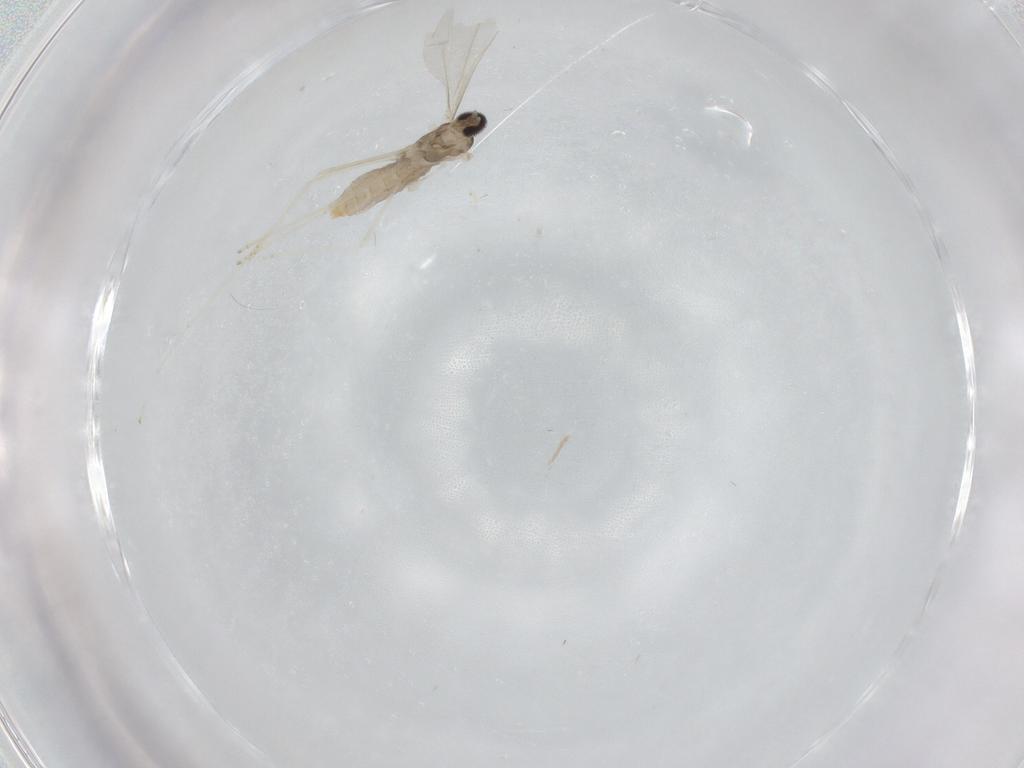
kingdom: Animalia
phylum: Arthropoda
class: Insecta
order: Diptera
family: Cecidomyiidae
